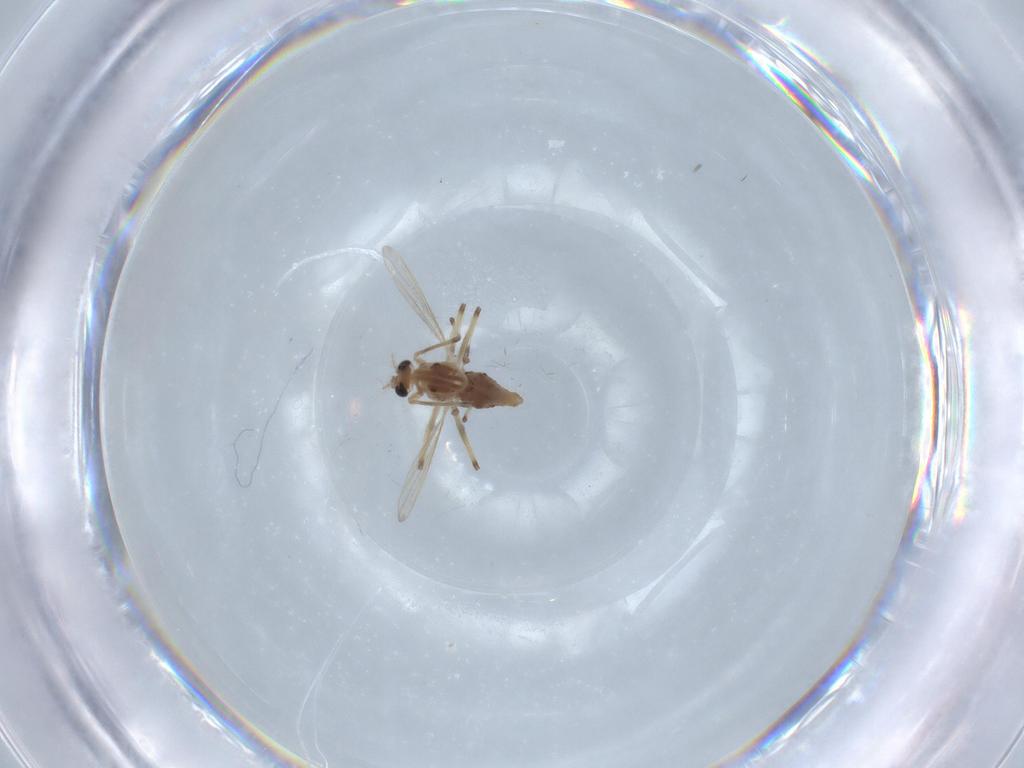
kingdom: Animalia
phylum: Arthropoda
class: Insecta
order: Diptera
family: Chironomidae
